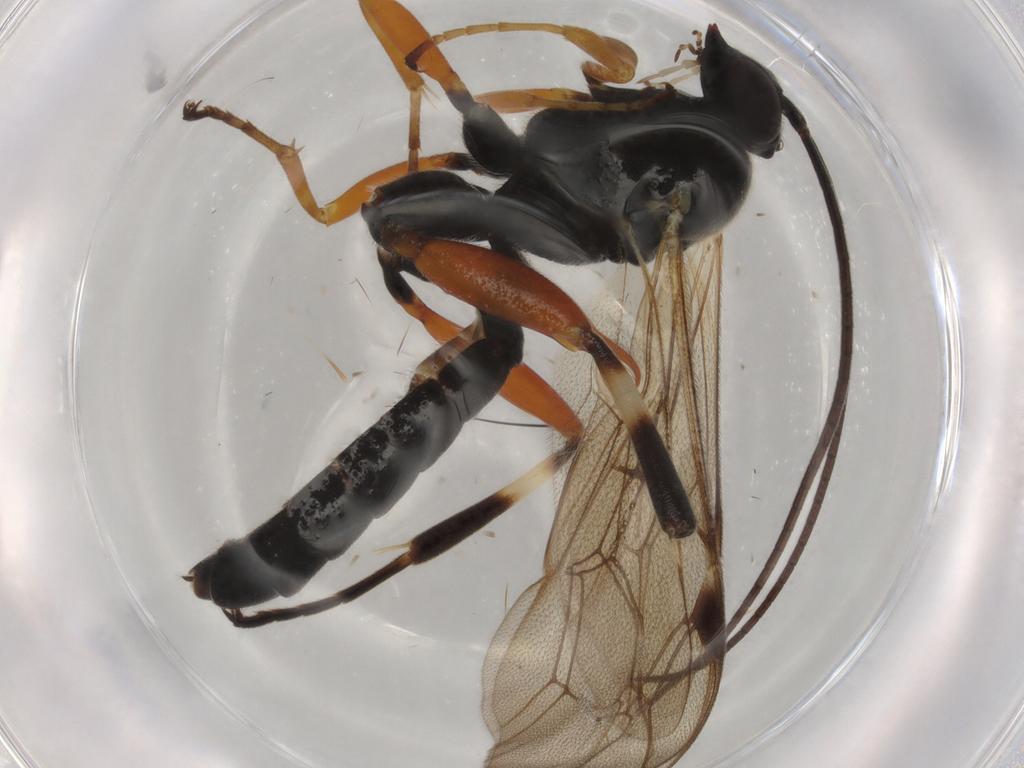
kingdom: Animalia
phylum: Arthropoda
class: Insecta
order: Hymenoptera
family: Ichneumonidae
